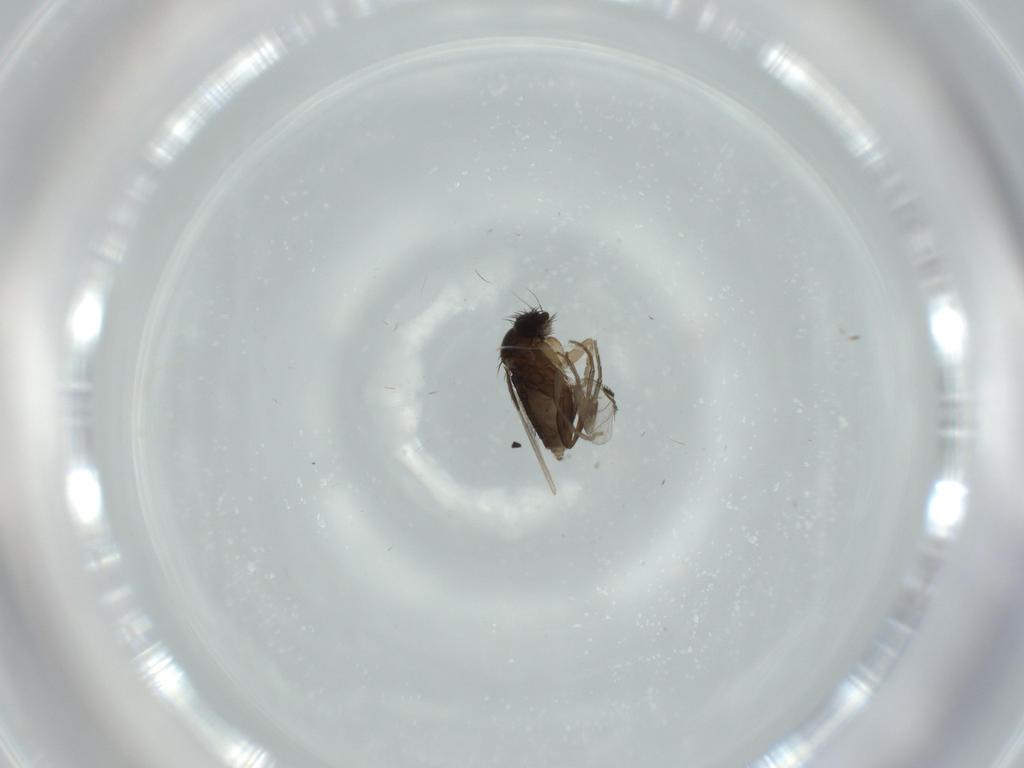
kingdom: Animalia
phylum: Arthropoda
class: Insecta
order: Diptera
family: Phoridae
